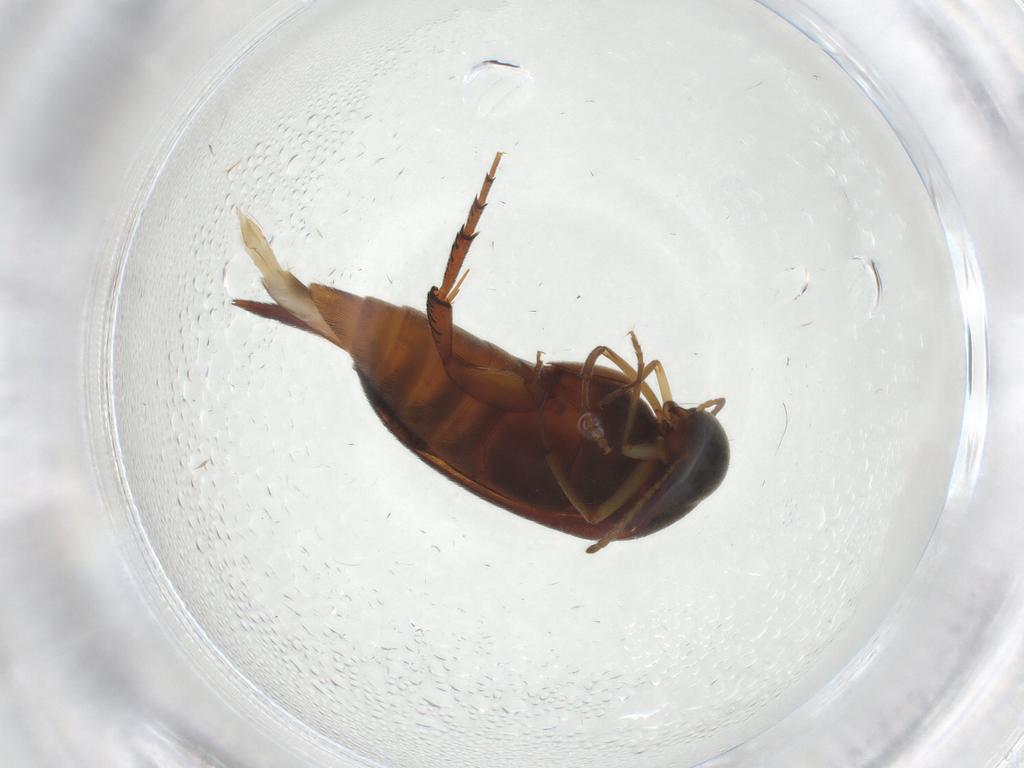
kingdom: Animalia
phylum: Arthropoda
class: Insecta
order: Coleoptera
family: Mordellidae
